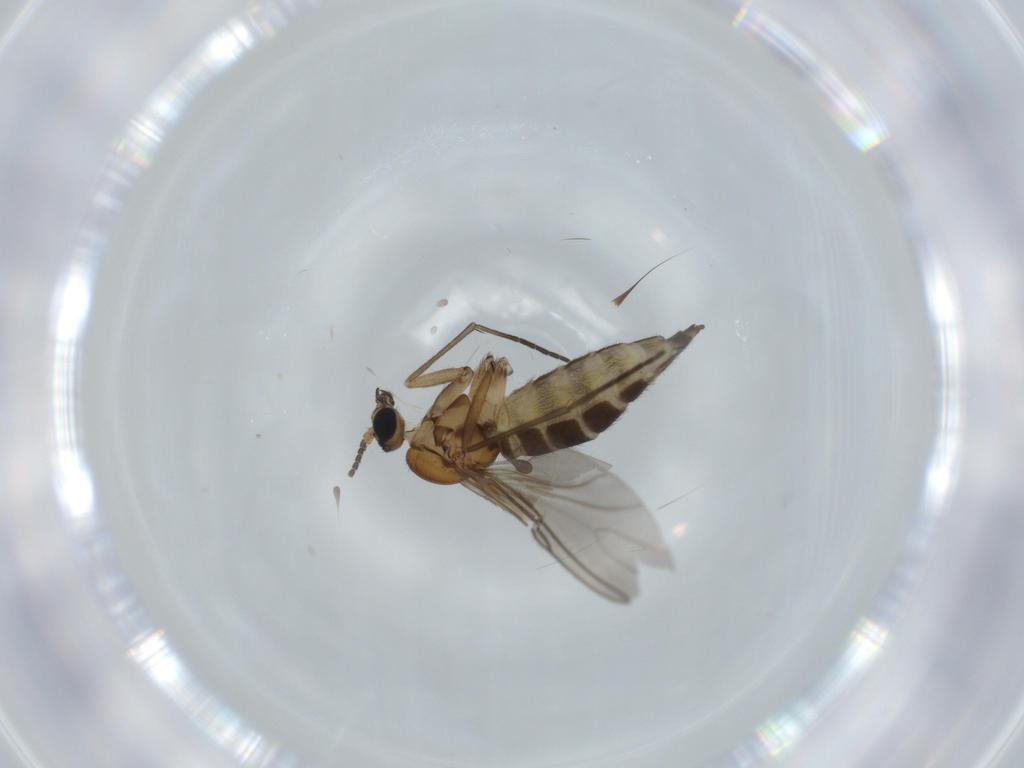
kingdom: Animalia
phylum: Arthropoda
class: Insecta
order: Diptera
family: Sciaridae
